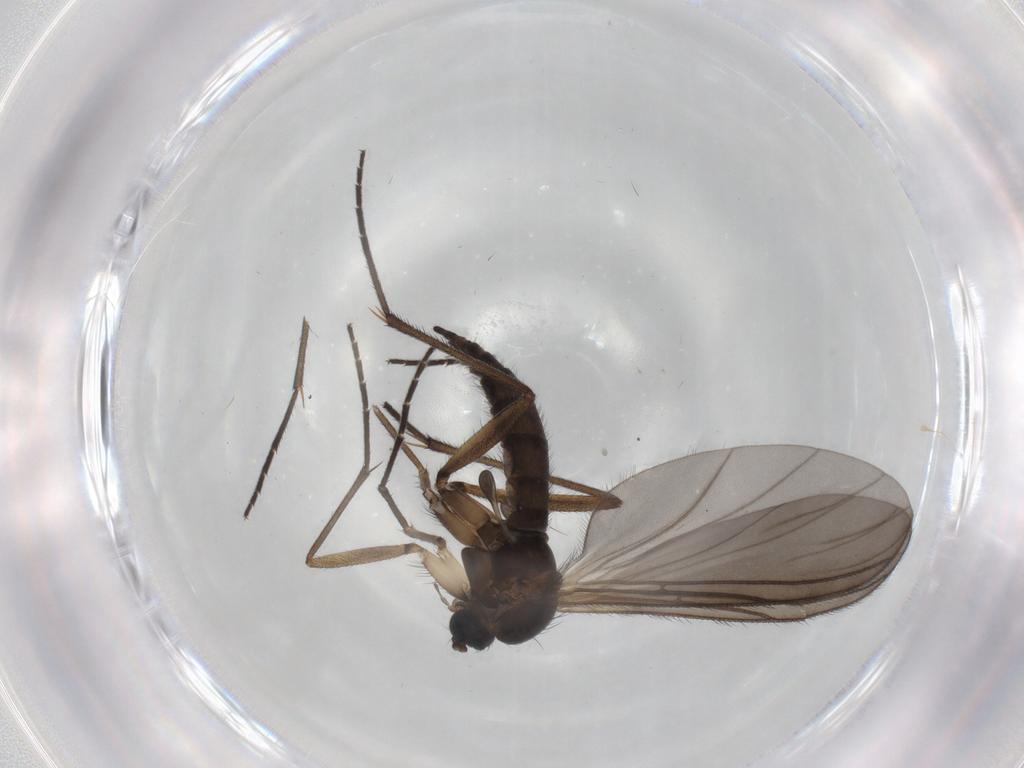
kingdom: Animalia
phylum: Arthropoda
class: Insecta
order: Diptera
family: Sciaridae
